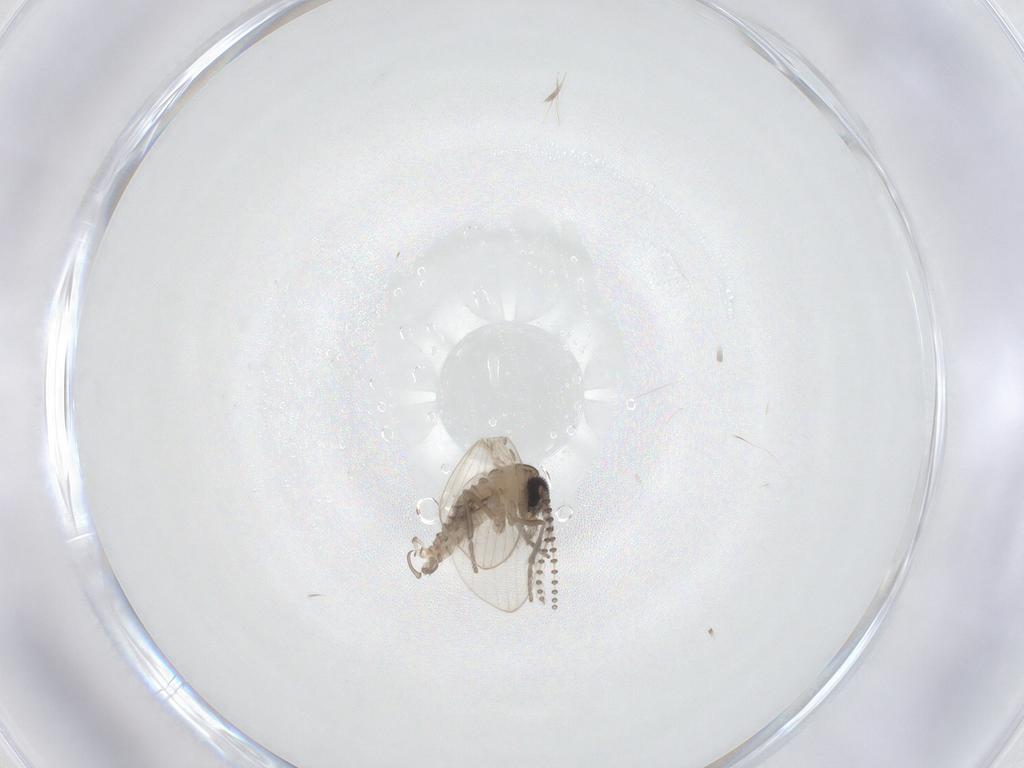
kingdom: Animalia
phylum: Arthropoda
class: Insecta
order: Diptera
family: Psychodidae
